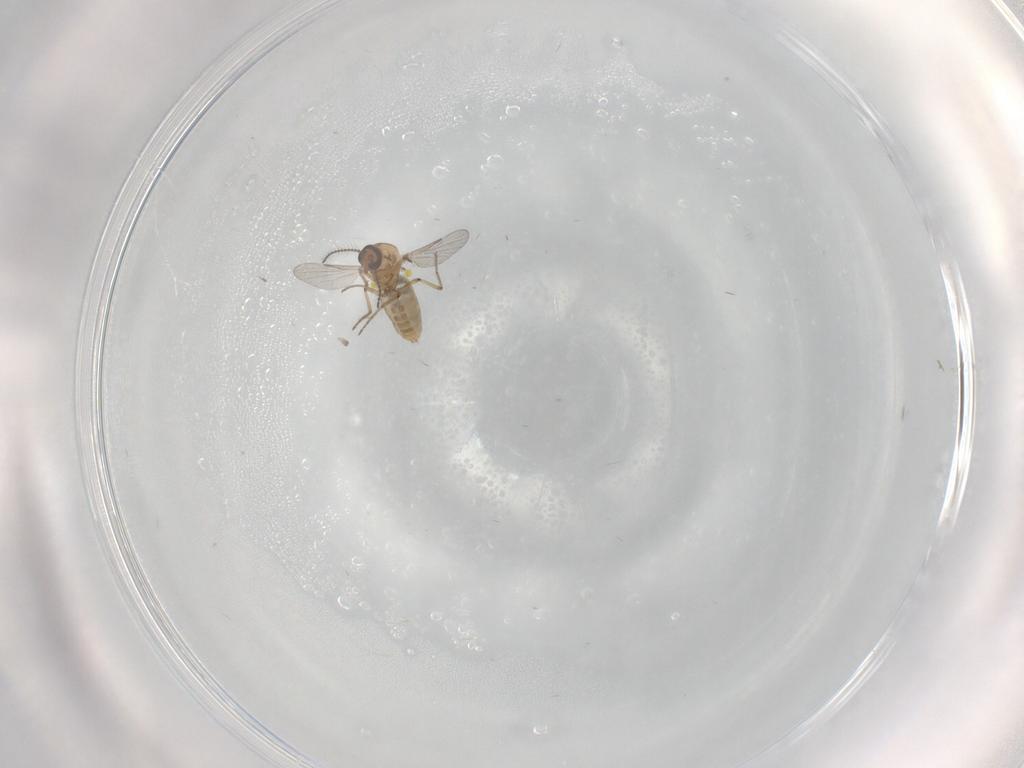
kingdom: Animalia
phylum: Arthropoda
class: Insecta
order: Diptera
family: Ceratopogonidae
